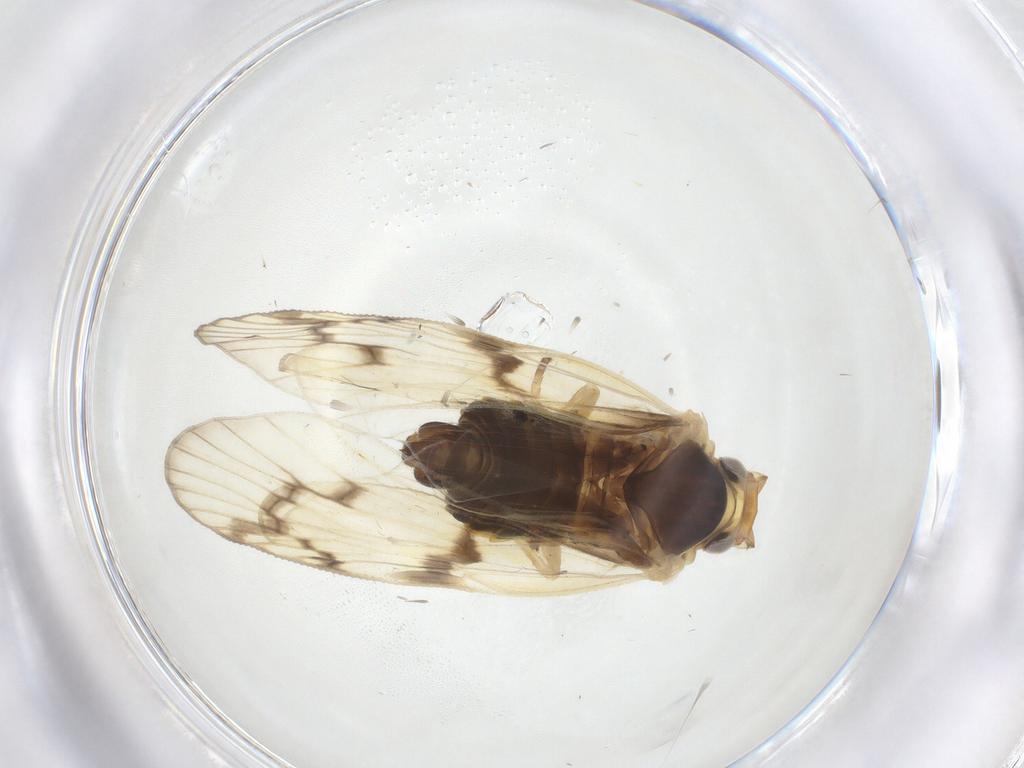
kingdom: Animalia
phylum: Arthropoda
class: Insecta
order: Hemiptera
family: Cixiidae
